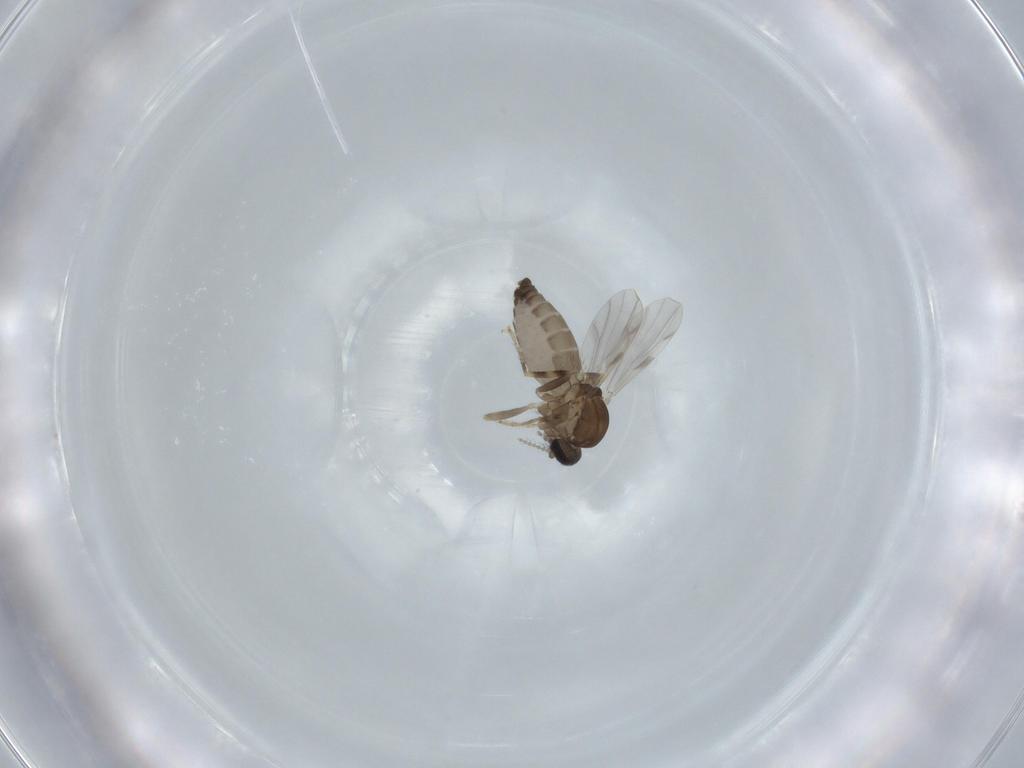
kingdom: Animalia
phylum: Arthropoda
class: Insecta
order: Diptera
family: Ceratopogonidae
